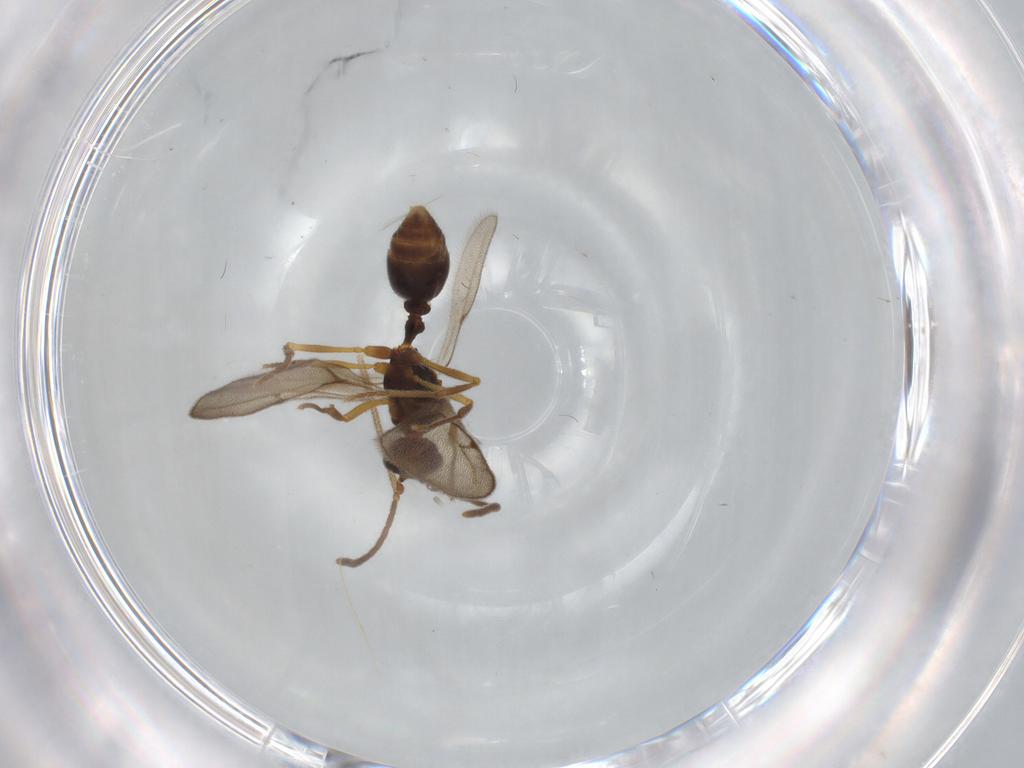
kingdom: Animalia
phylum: Arthropoda
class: Insecta
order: Hymenoptera
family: Formicidae
